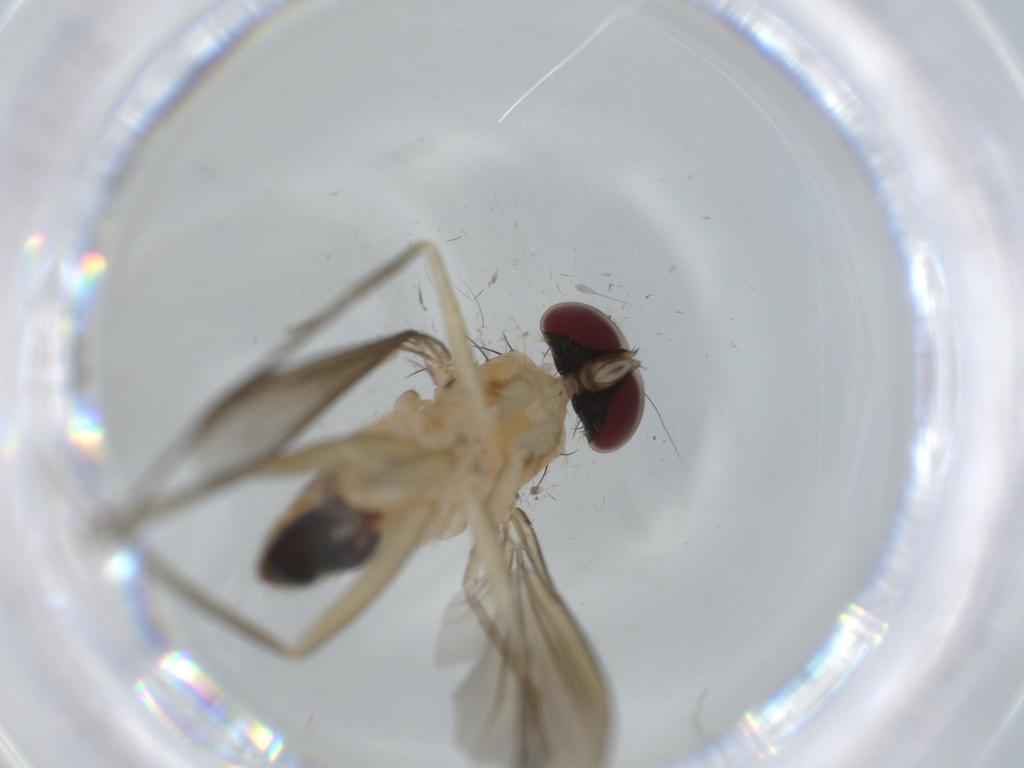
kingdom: Animalia
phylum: Arthropoda
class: Insecta
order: Diptera
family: Dolichopodidae
